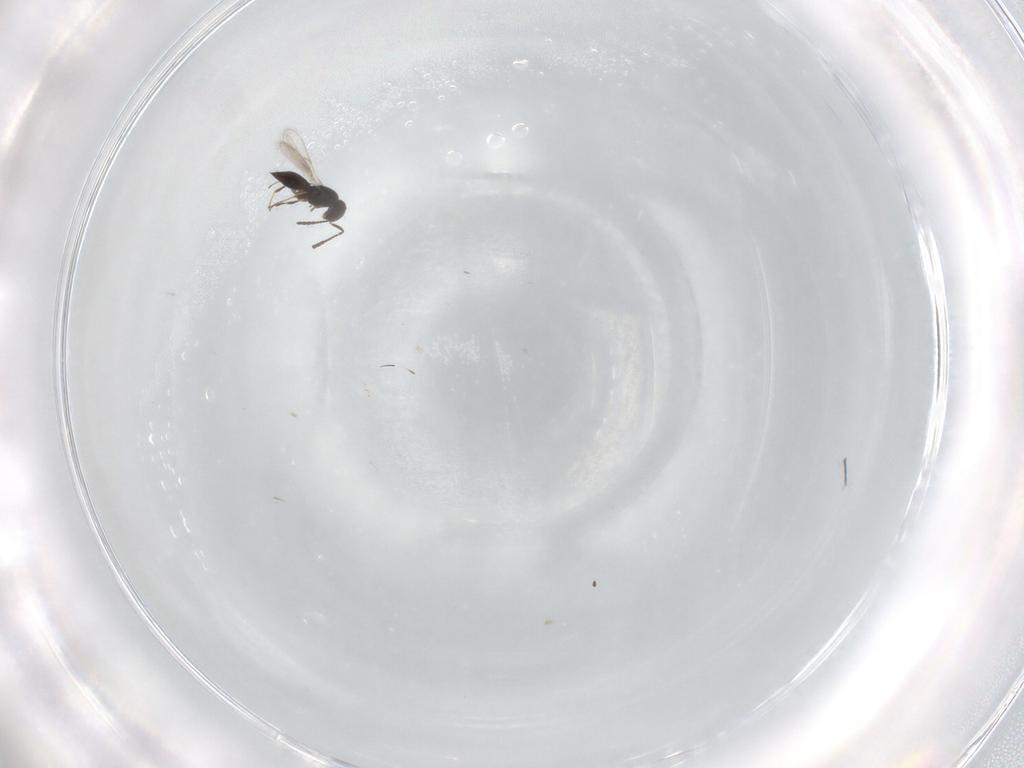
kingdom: Animalia
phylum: Arthropoda
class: Insecta
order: Hymenoptera
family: Scelionidae
